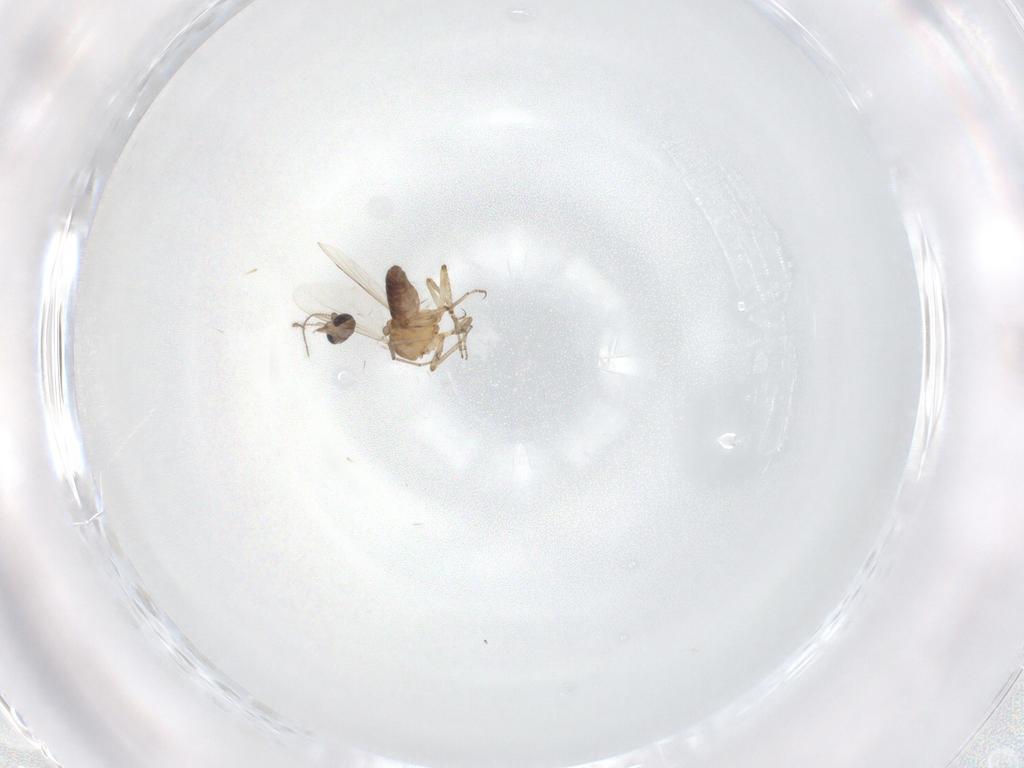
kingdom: Animalia
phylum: Arthropoda
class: Insecta
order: Diptera
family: Ceratopogonidae
